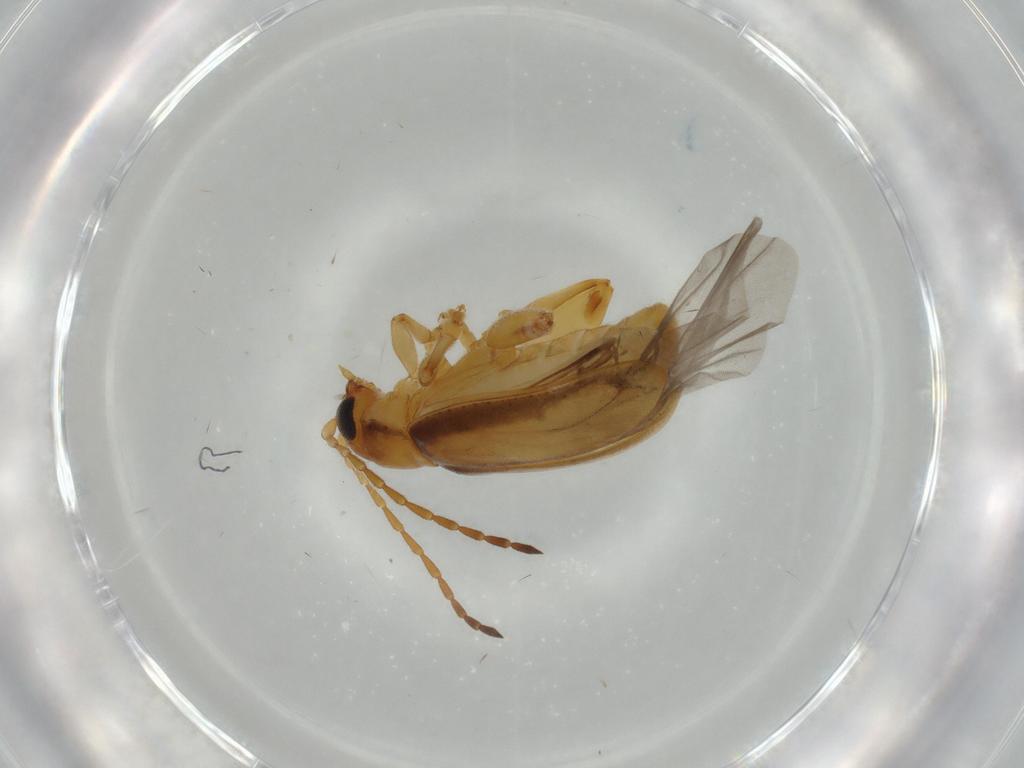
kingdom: Animalia
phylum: Arthropoda
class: Insecta
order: Coleoptera
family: Chrysomelidae
